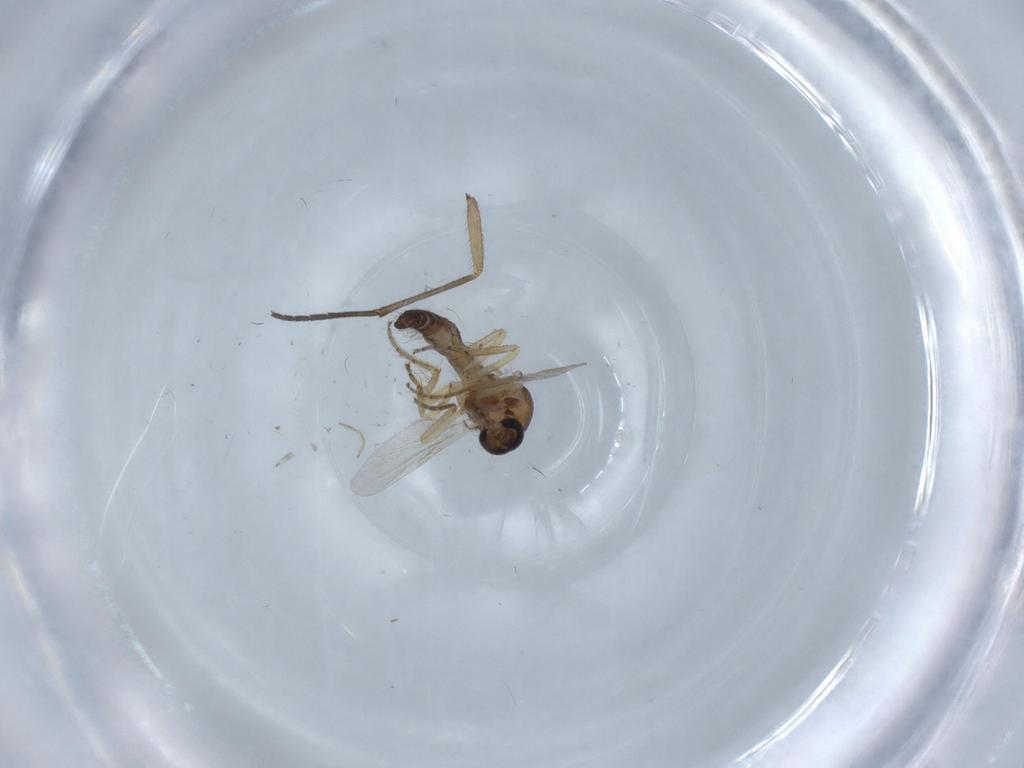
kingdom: Animalia
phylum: Arthropoda
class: Insecta
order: Diptera
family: Ceratopogonidae
